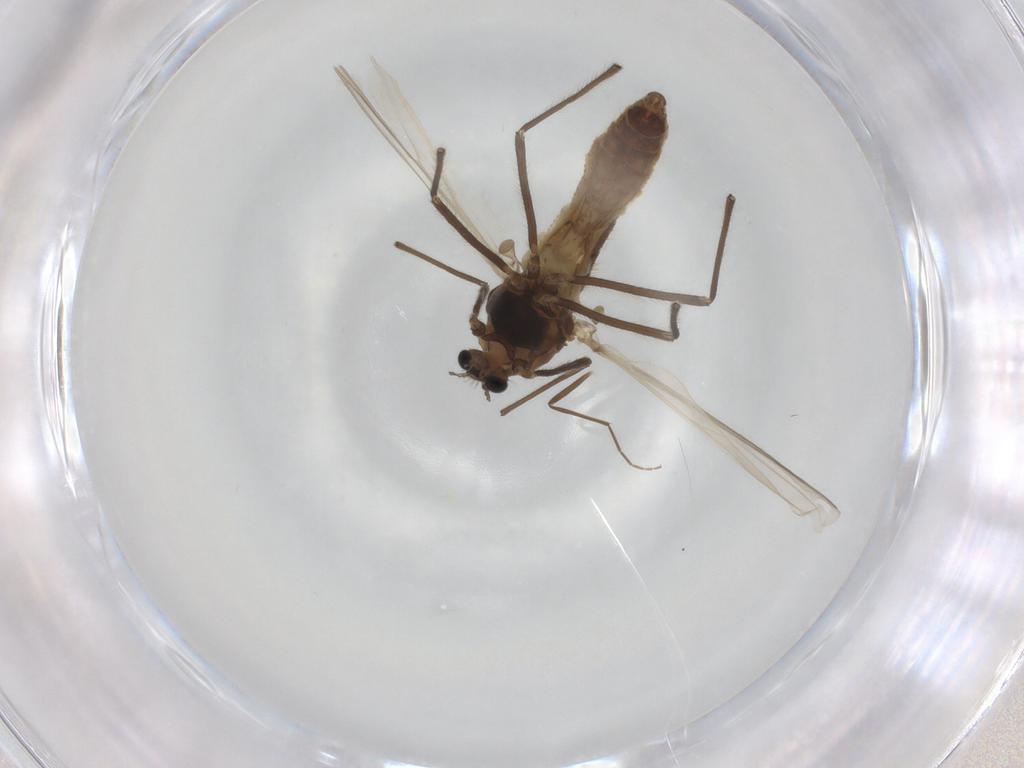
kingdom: Animalia
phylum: Arthropoda
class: Insecta
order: Diptera
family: Chironomidae
